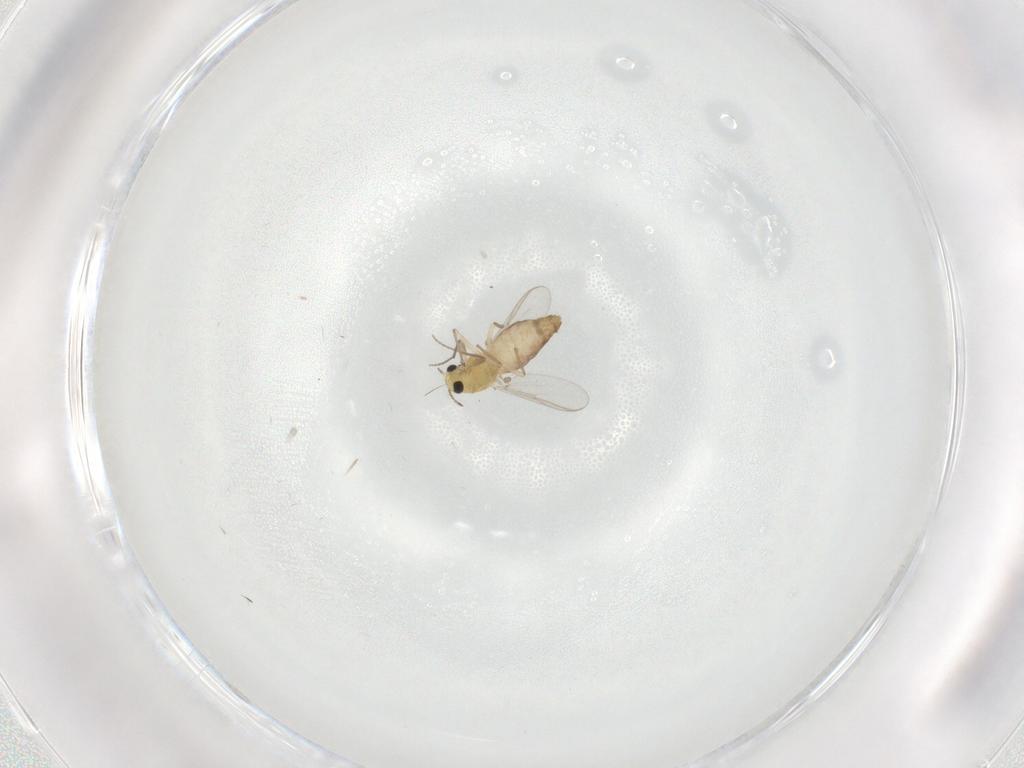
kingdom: Animalia
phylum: Arthropoda
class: Insecta
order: Diptera
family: Chironomidae
